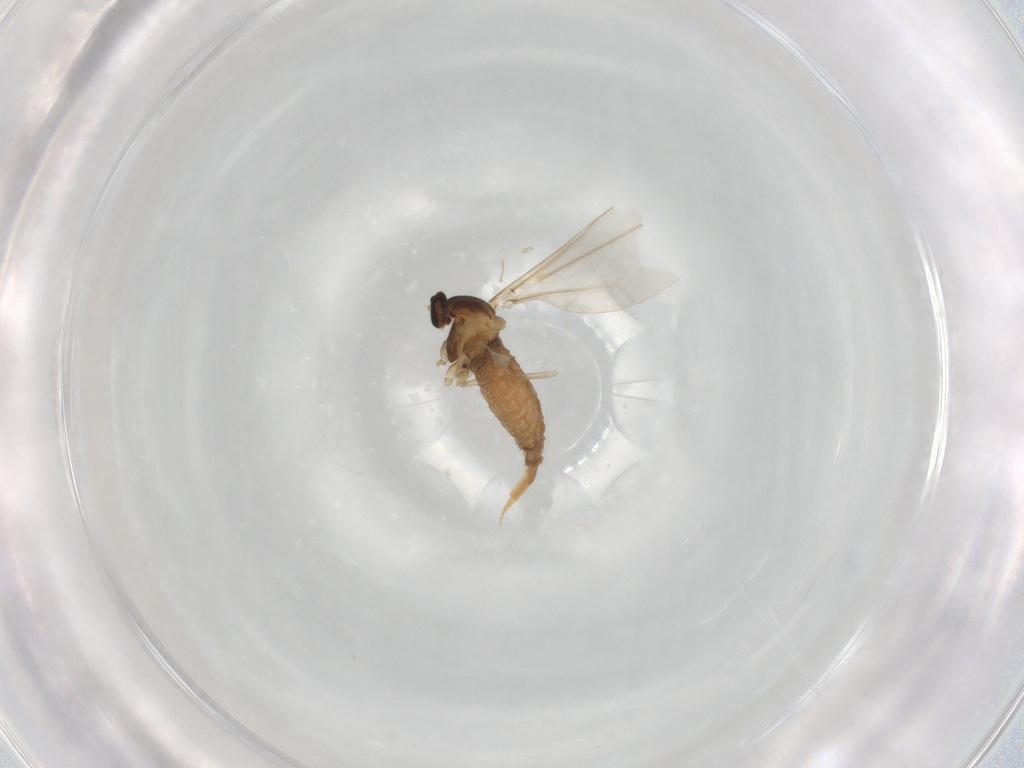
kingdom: Animalia
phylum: Arthropoda
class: Insecta
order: Diptera
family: Cecidomyiidae
